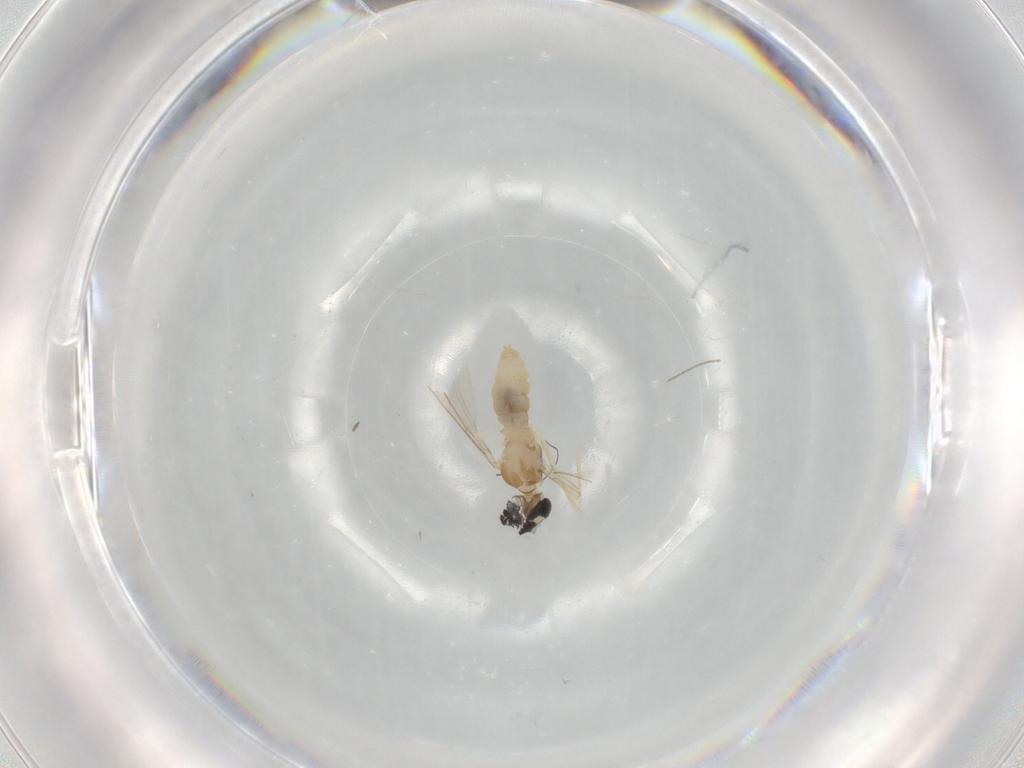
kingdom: Animalia
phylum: Arthropoda
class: Insecta
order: Diptera
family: Cecidomyiidae
